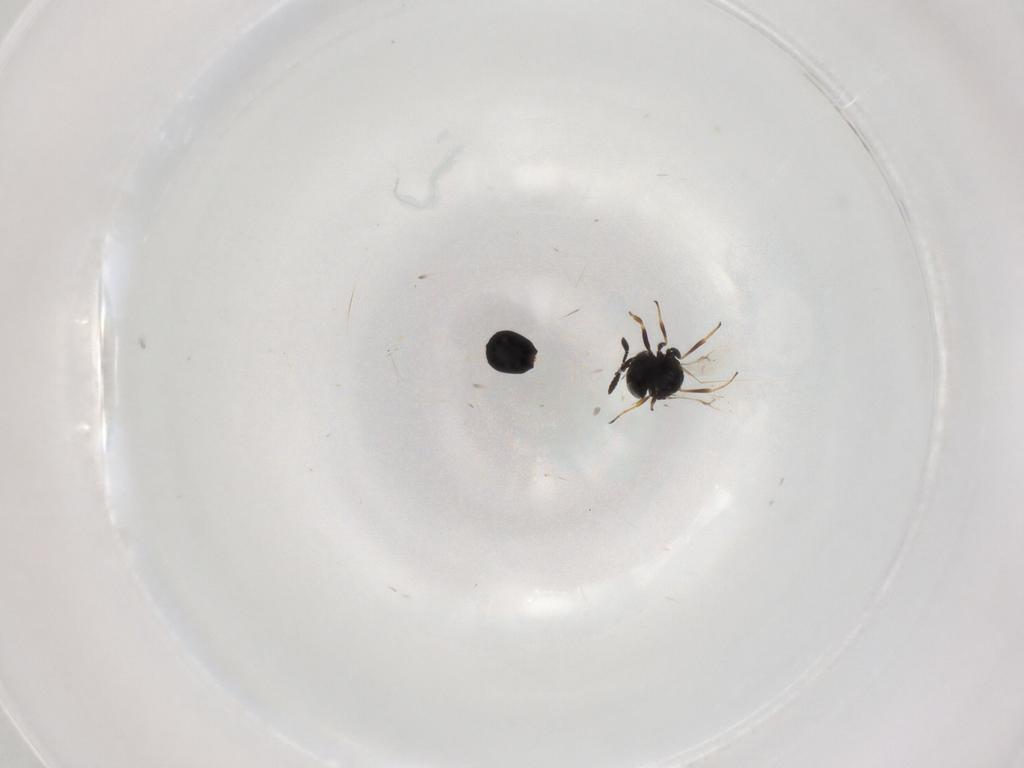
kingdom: Animalia
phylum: Arthropoda
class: Insecta
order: Hymenoptera
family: Scelionidae
